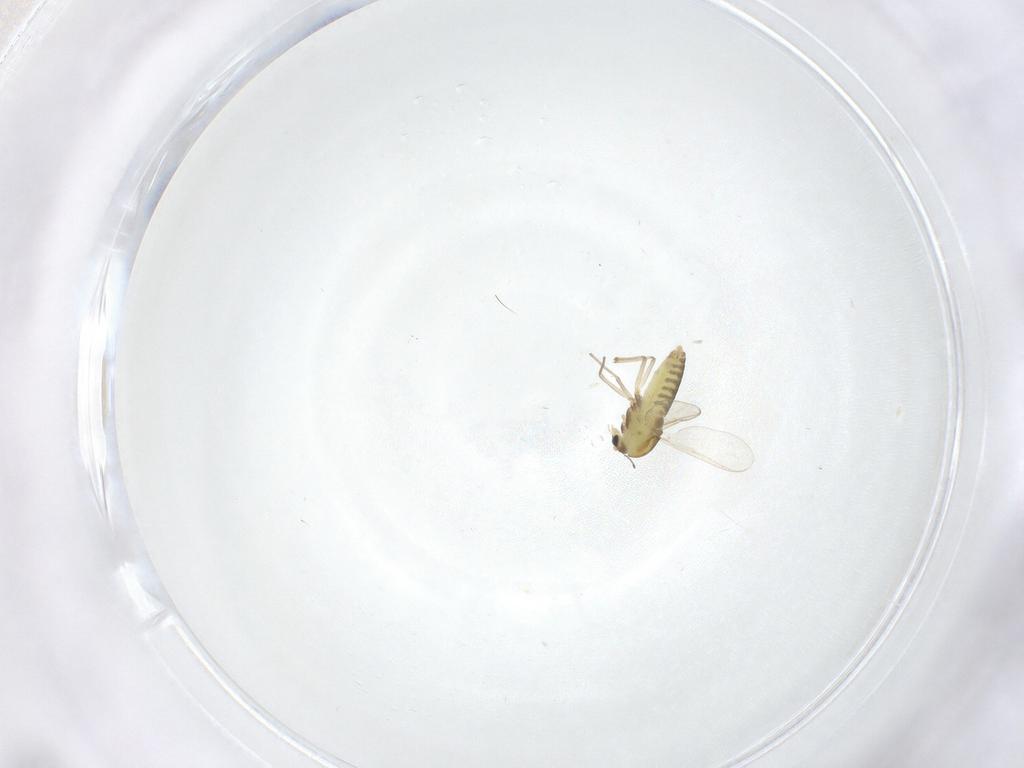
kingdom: Animalia
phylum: Arthropoda
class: Insecta
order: Diptera
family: Chironomidae
